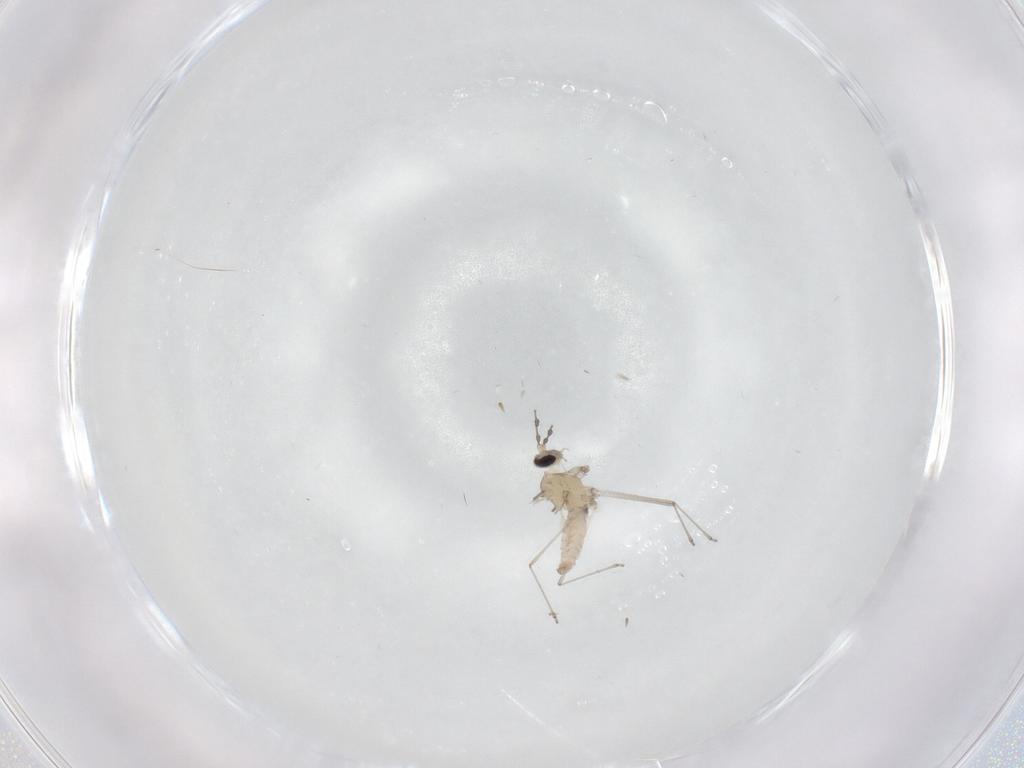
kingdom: Animalia
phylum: Arthropoda
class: Insecta
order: Diptera
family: Cecidomyiidae
